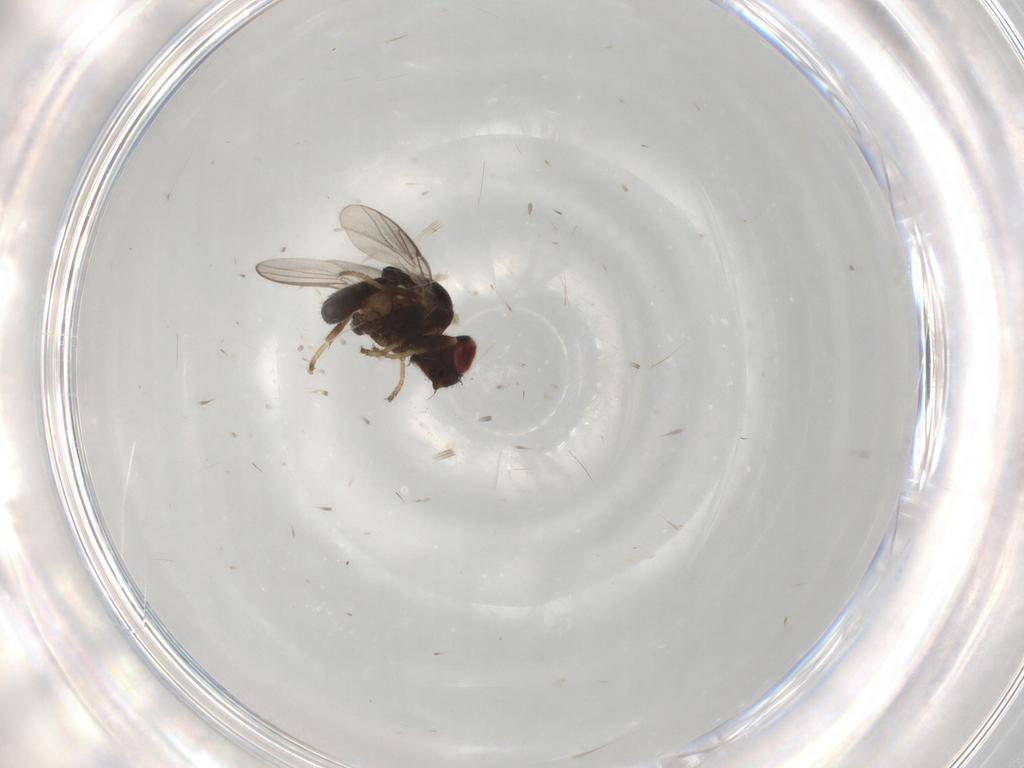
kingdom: Animalia
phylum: Arthropoda
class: Insecta
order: Diptera
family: Chloropidae
